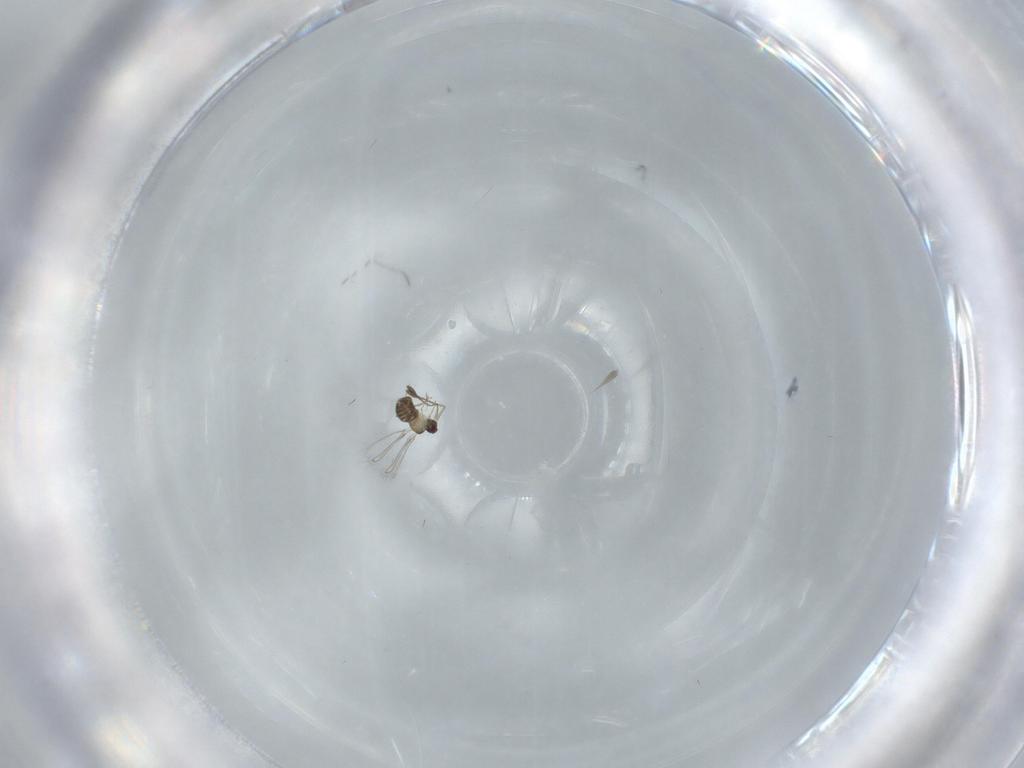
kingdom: Animalia
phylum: Arthropoda
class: Insecta
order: Hymenoptera
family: Mymaridae
